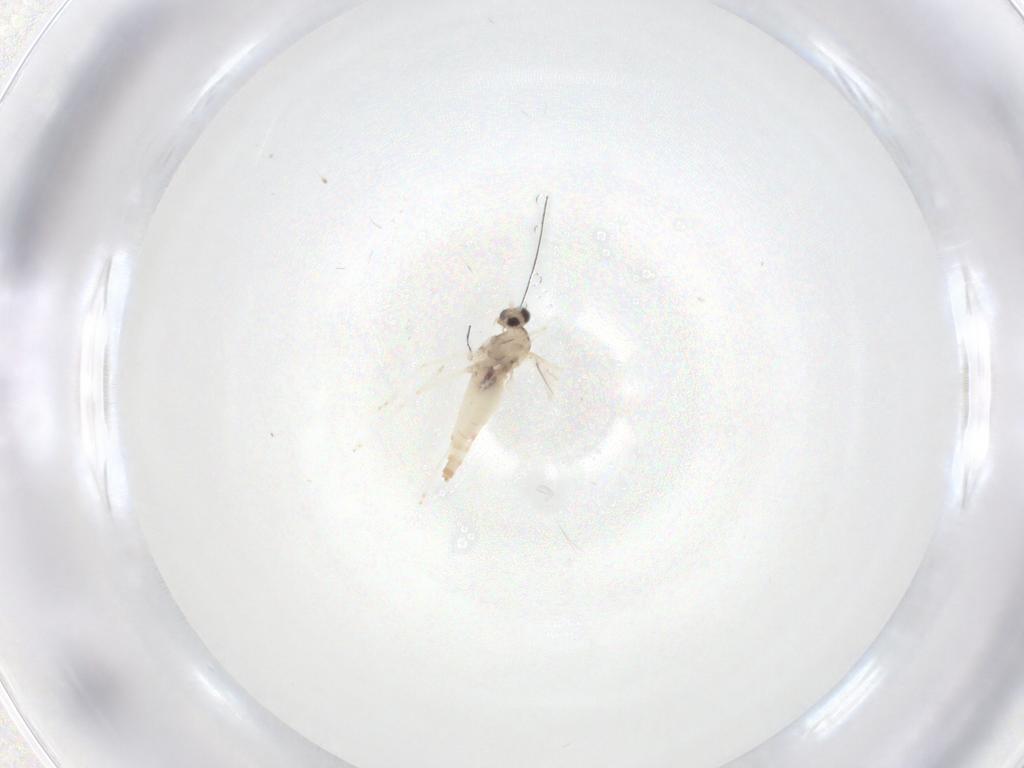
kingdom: Animalia
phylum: Arthropoda
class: Insecta
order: Diptera
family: Cecidomyiidae
